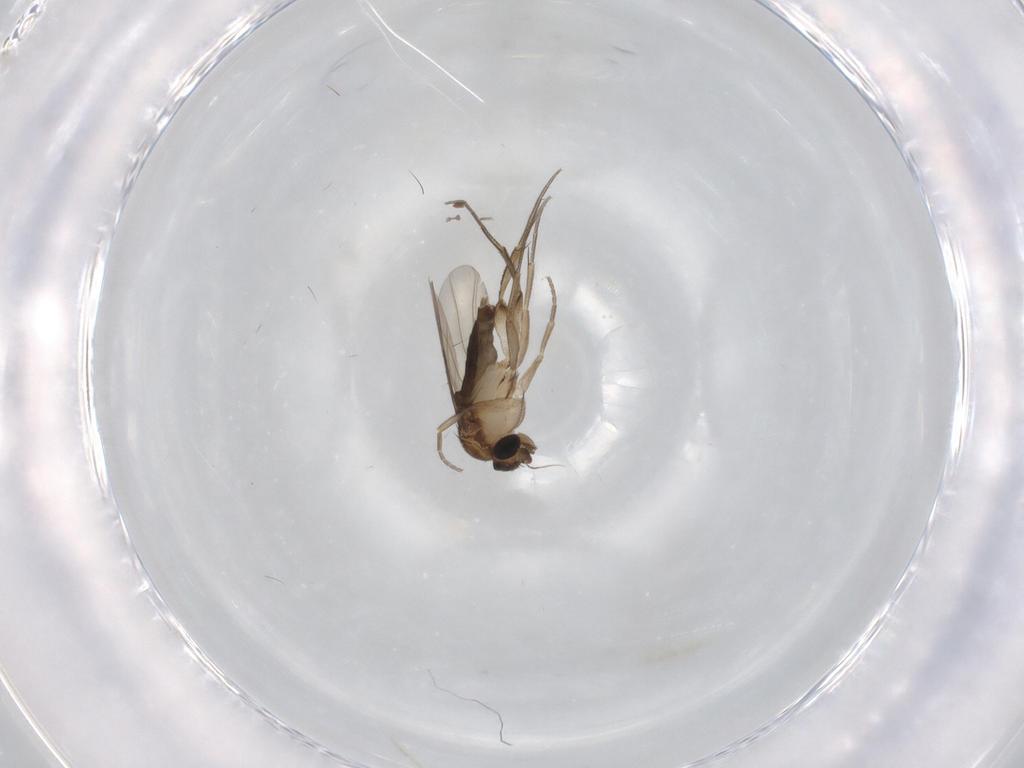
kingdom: Animalia
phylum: Arthropoda
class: Insecta
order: Diptera
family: Phoridae
